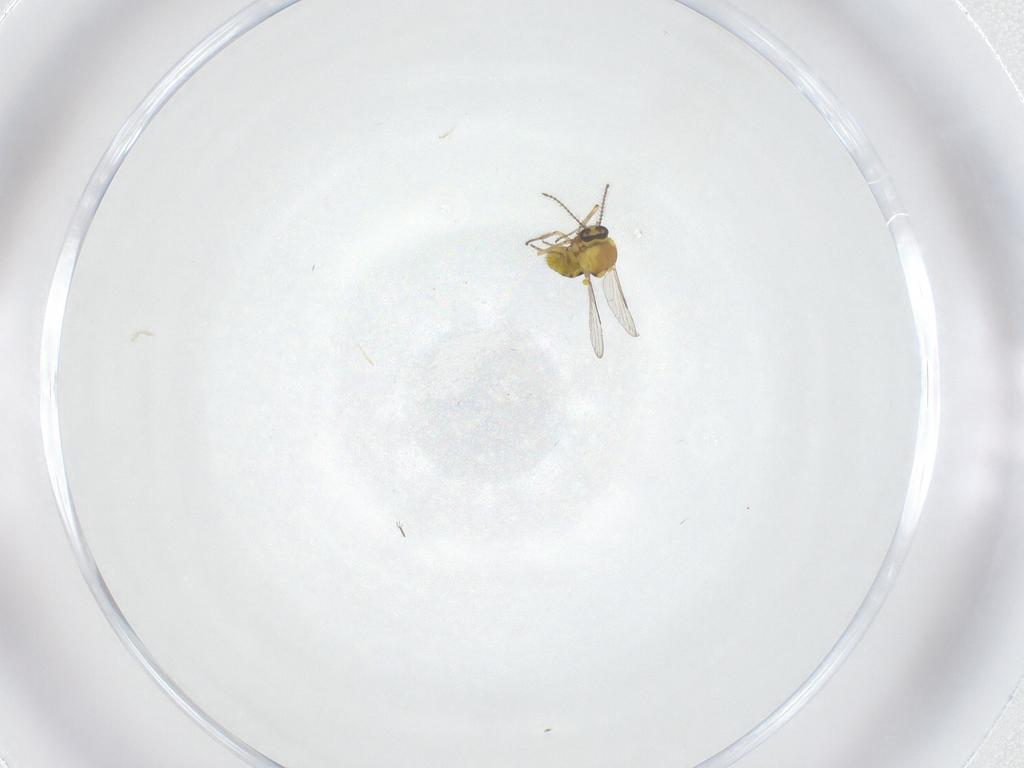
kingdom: Animalia
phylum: Arthropoda
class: Insecta
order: Diptera
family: Ceratopogonidae
